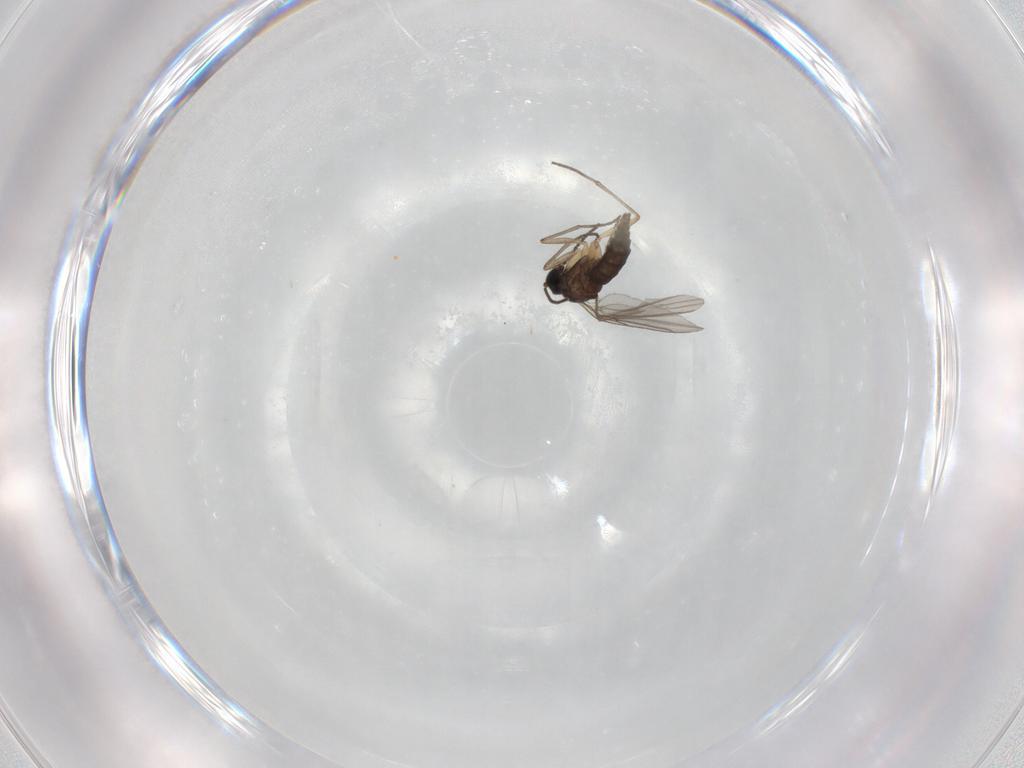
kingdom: Animalia
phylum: Arthropoda
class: Insecta
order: Diptera
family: Sciaridae
